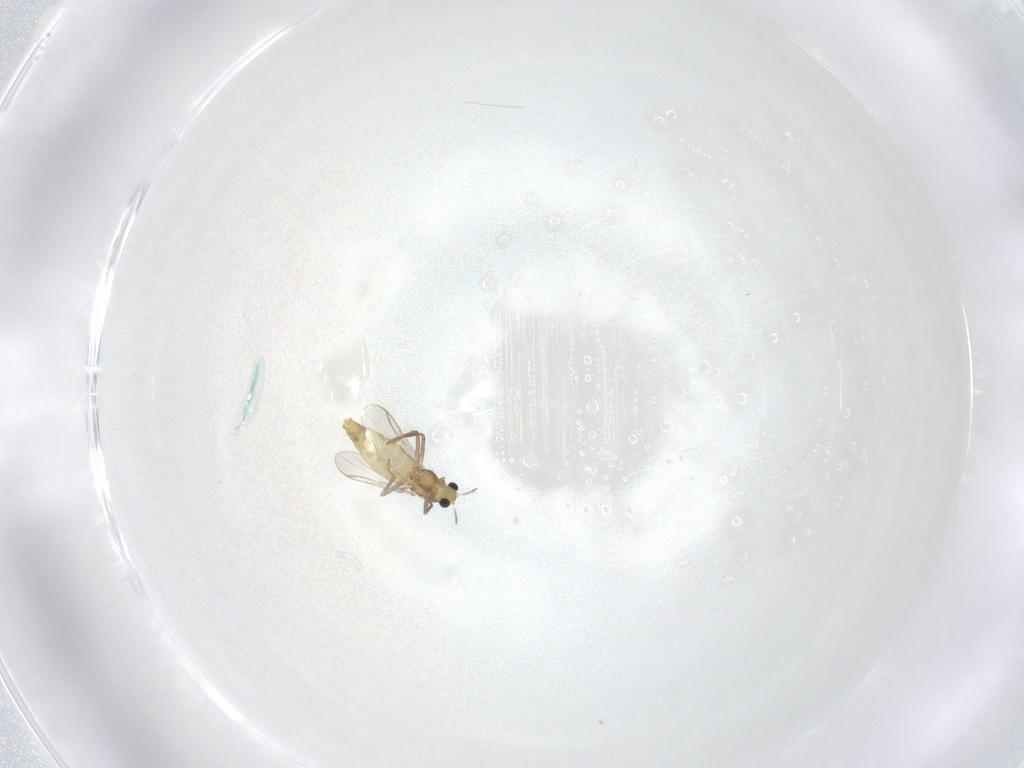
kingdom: Animalia
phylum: Arthropoda
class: Insecta
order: Diptera
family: Chironomidae
